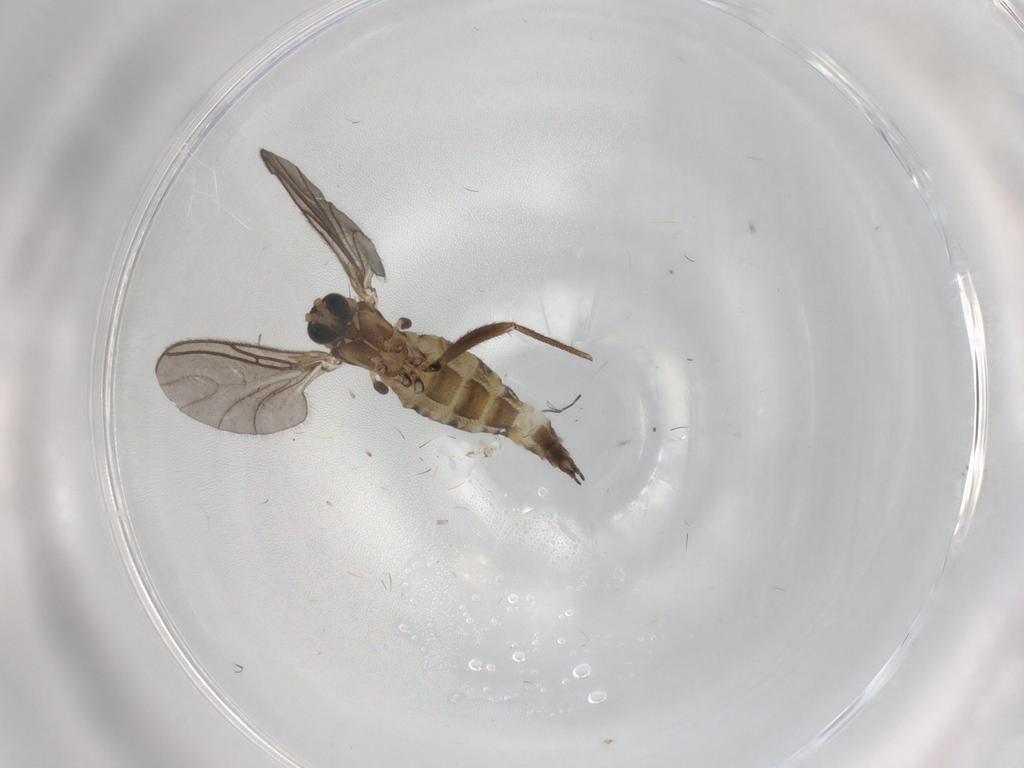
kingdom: Animalia
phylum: Arthropoda
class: Insecta
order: Diptera
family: Sciaridae
